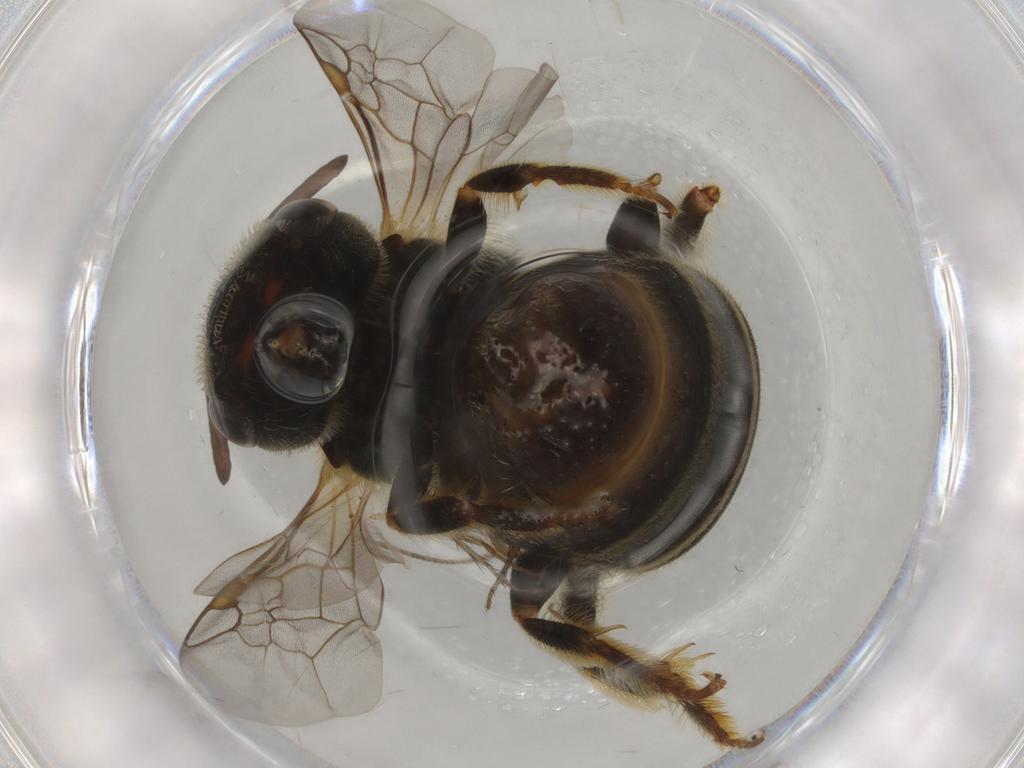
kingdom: Animalia
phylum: Arthropoda
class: Insecta
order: Hymenoptera
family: Halictidae
